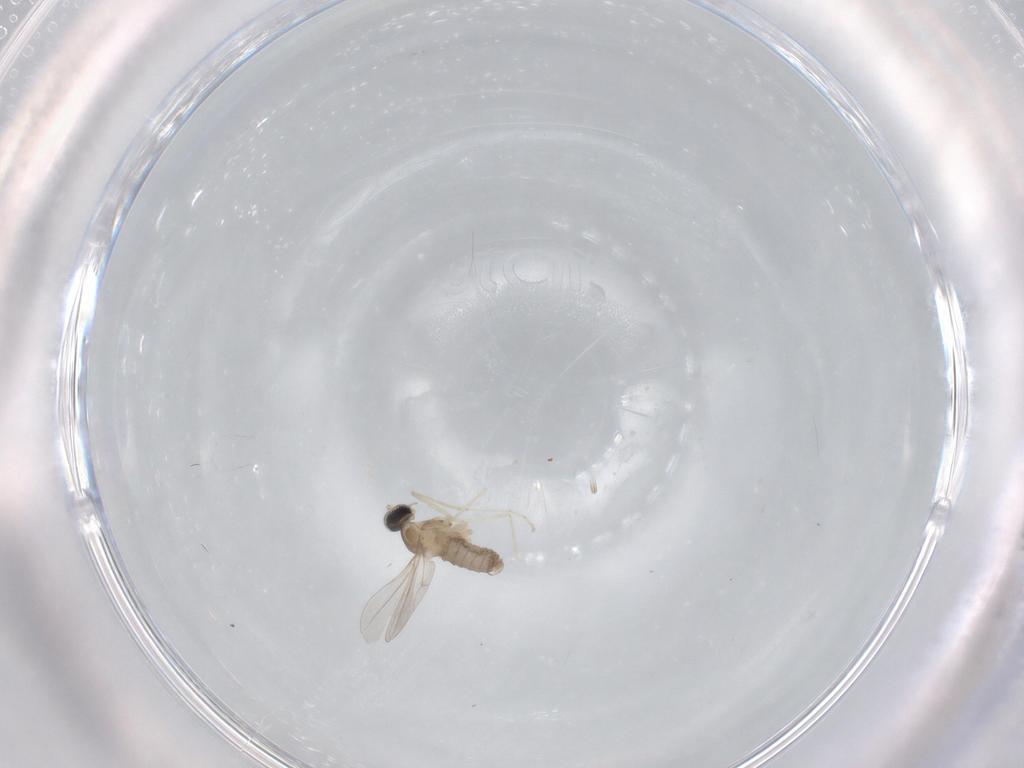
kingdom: Animalia
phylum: Arthropoda
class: Insecta
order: Diptera
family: Cecidomyiidae
